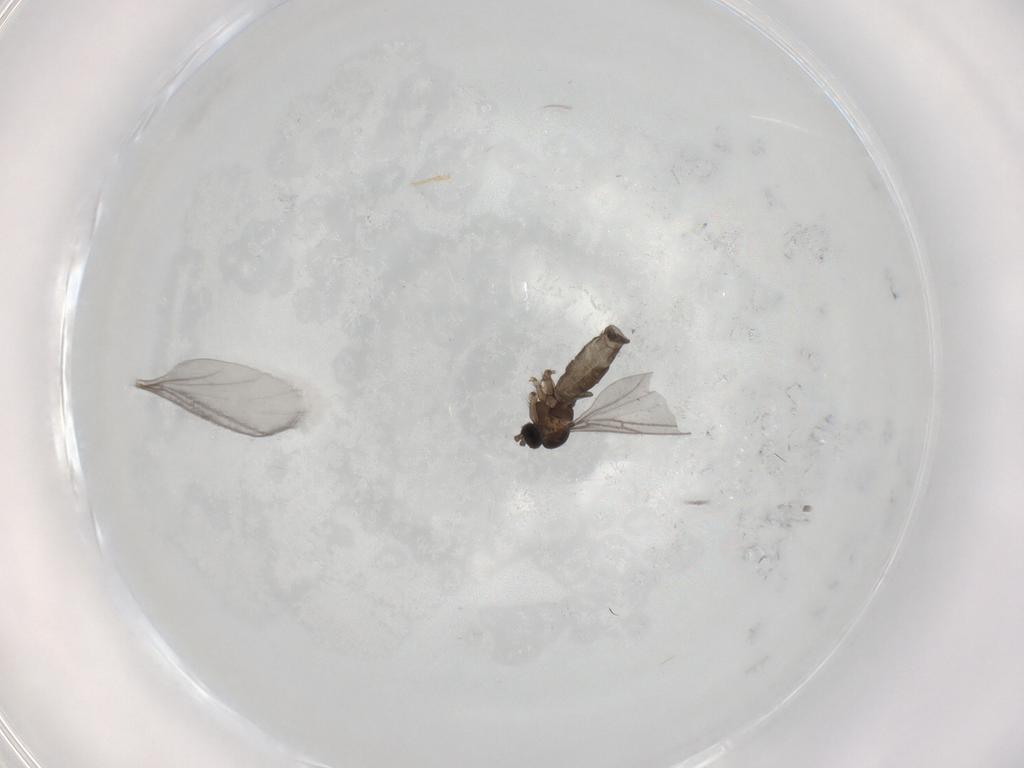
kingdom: Animalia
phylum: Arthropoda
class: Insecta
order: Diptera
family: Sciaridae
